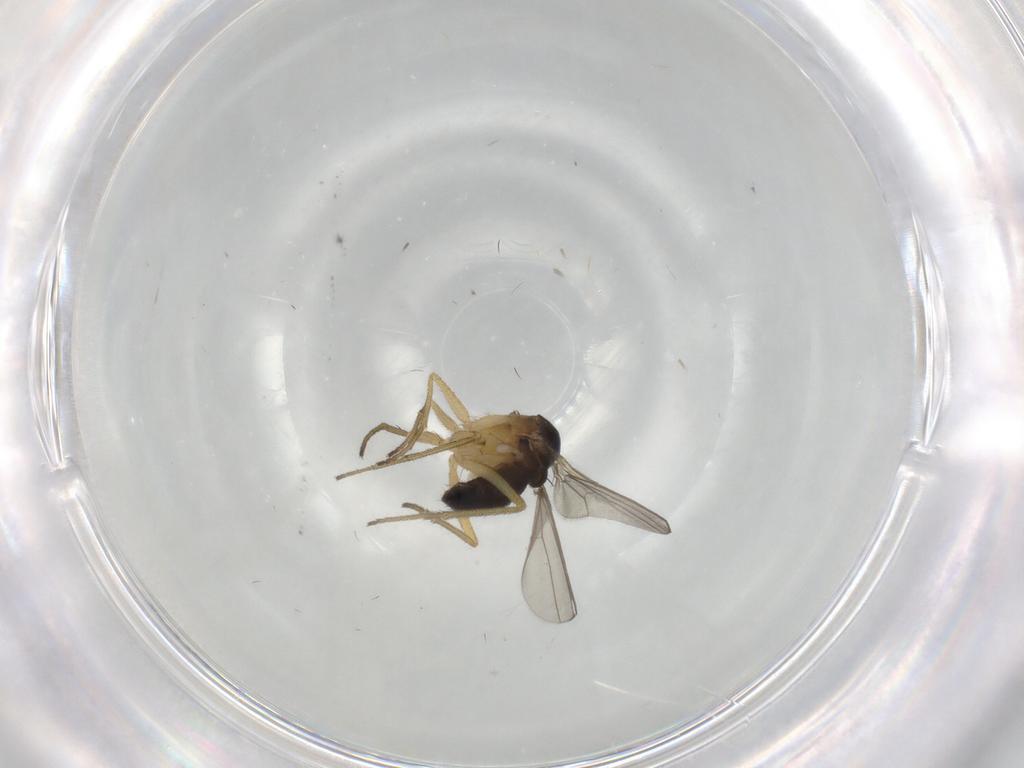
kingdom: Animalia
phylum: Arthropoda
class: Insecta
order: Diptera
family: Dolichopodidae
